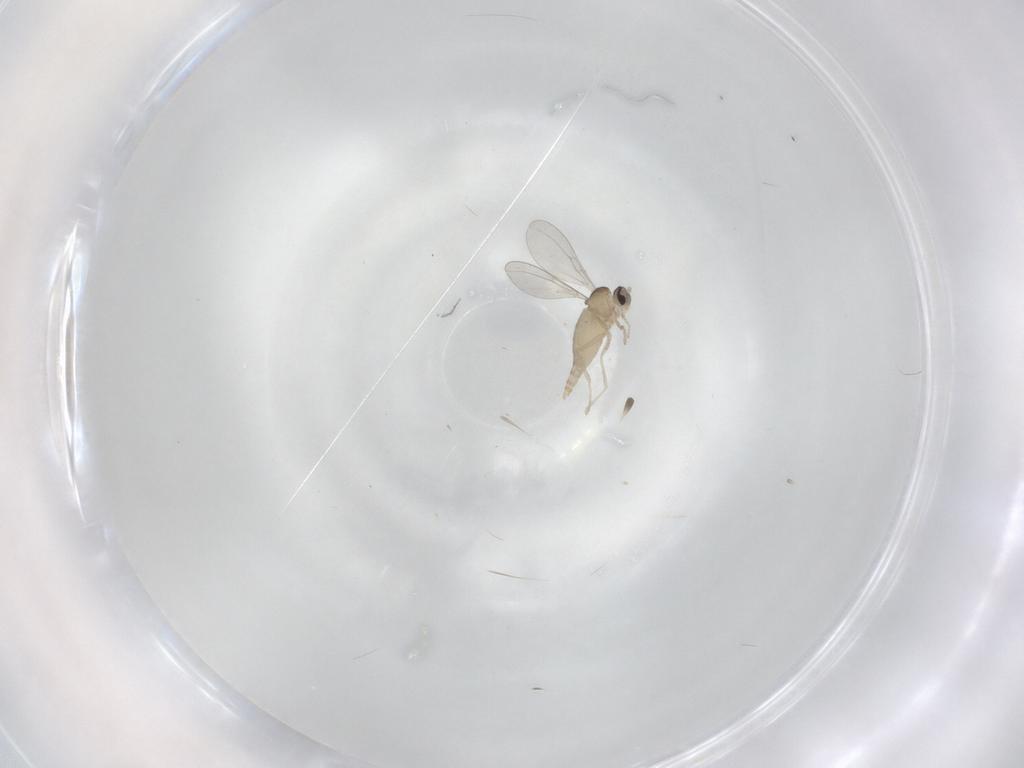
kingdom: Animalia
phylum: Arthropoda
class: Insecta
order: Diptera
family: Cecidomyiidae
